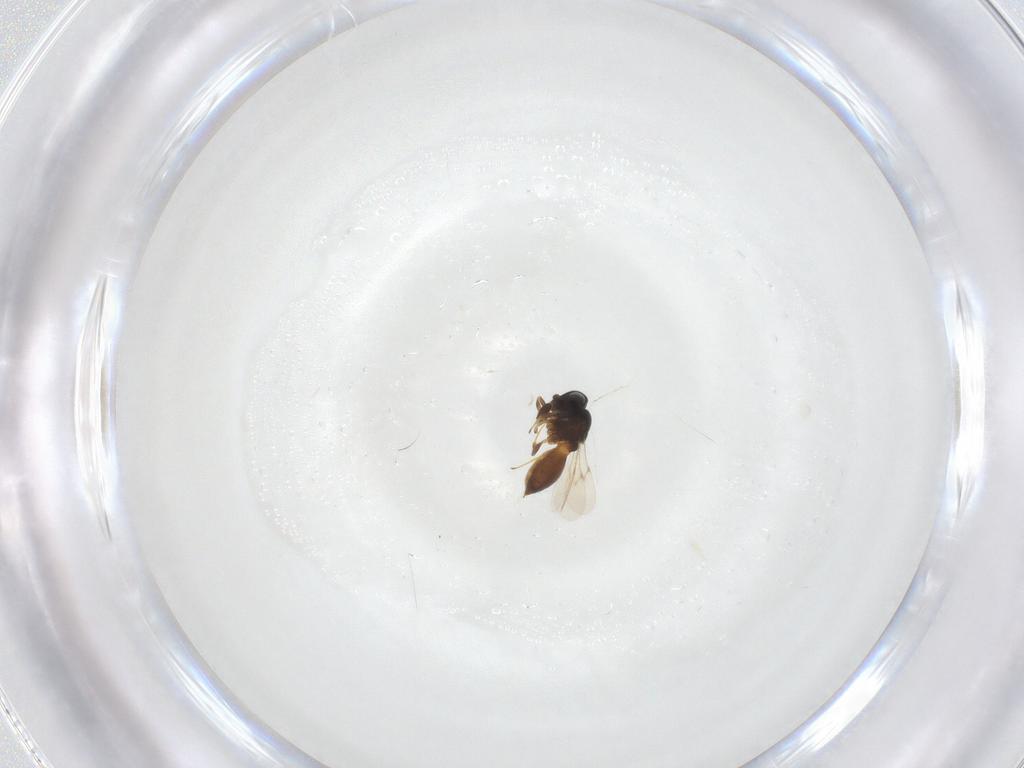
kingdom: Animalia
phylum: Arthropoda
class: Insecta
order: Hymenoptera
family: Scelionidae
